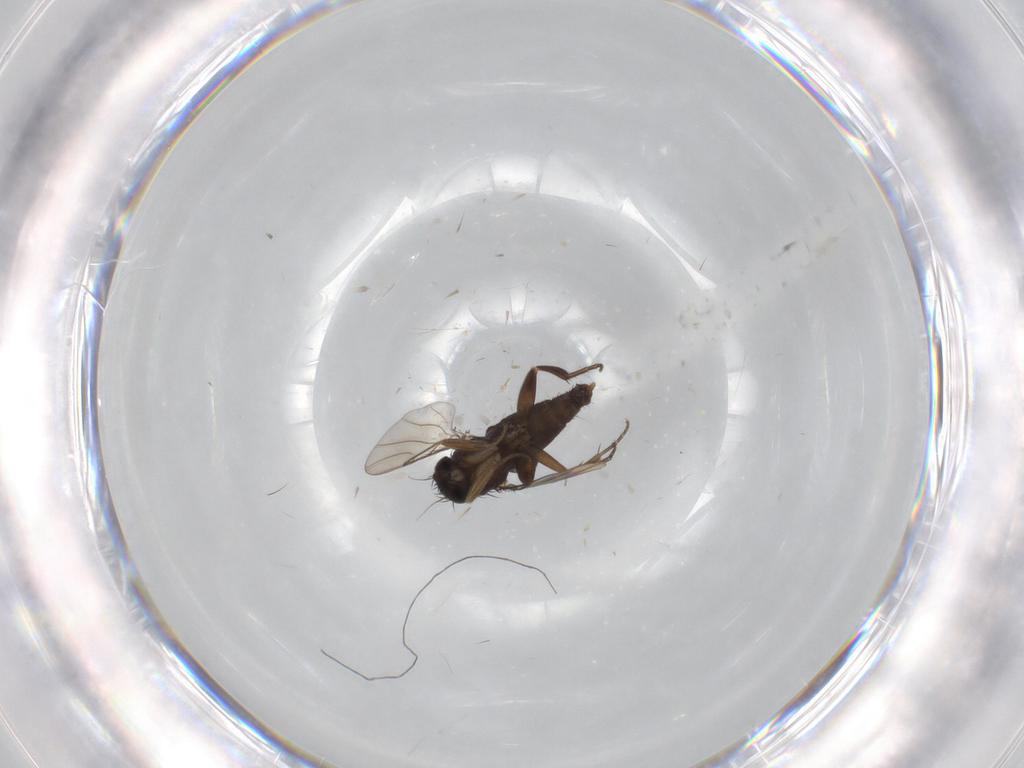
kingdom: Animalia
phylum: Arthropoda
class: Insecta
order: Diptera
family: Phoridae
